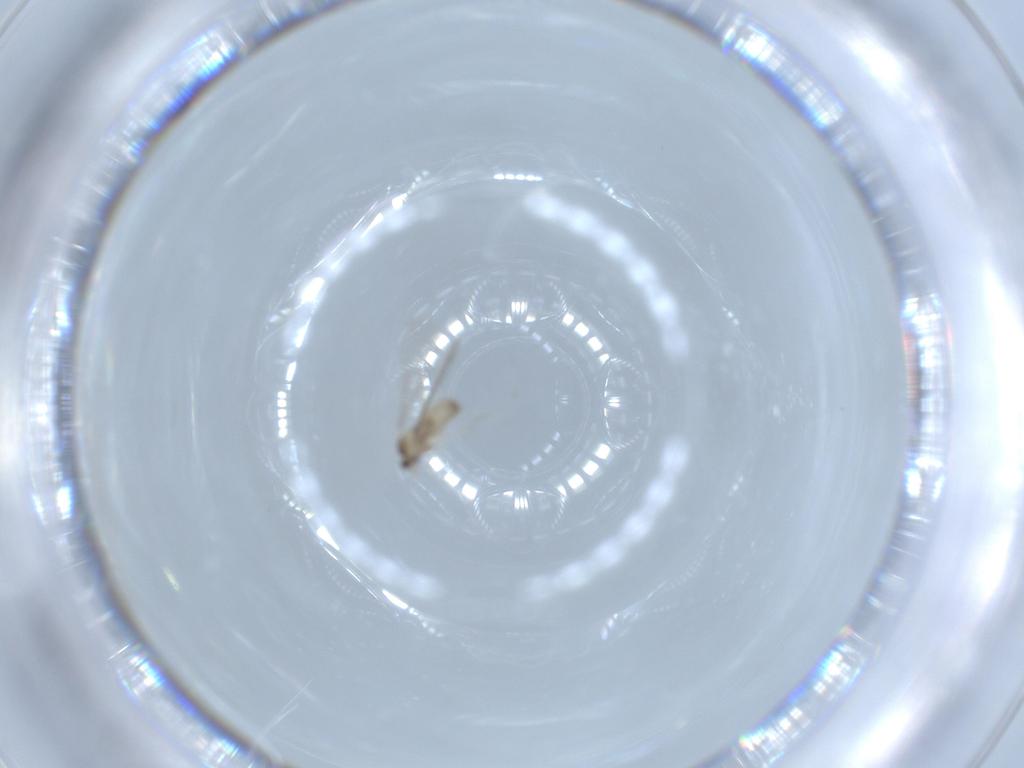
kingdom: Animalia
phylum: Arthropoda
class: Insecta
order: Diptera
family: Cecidomyiidae
